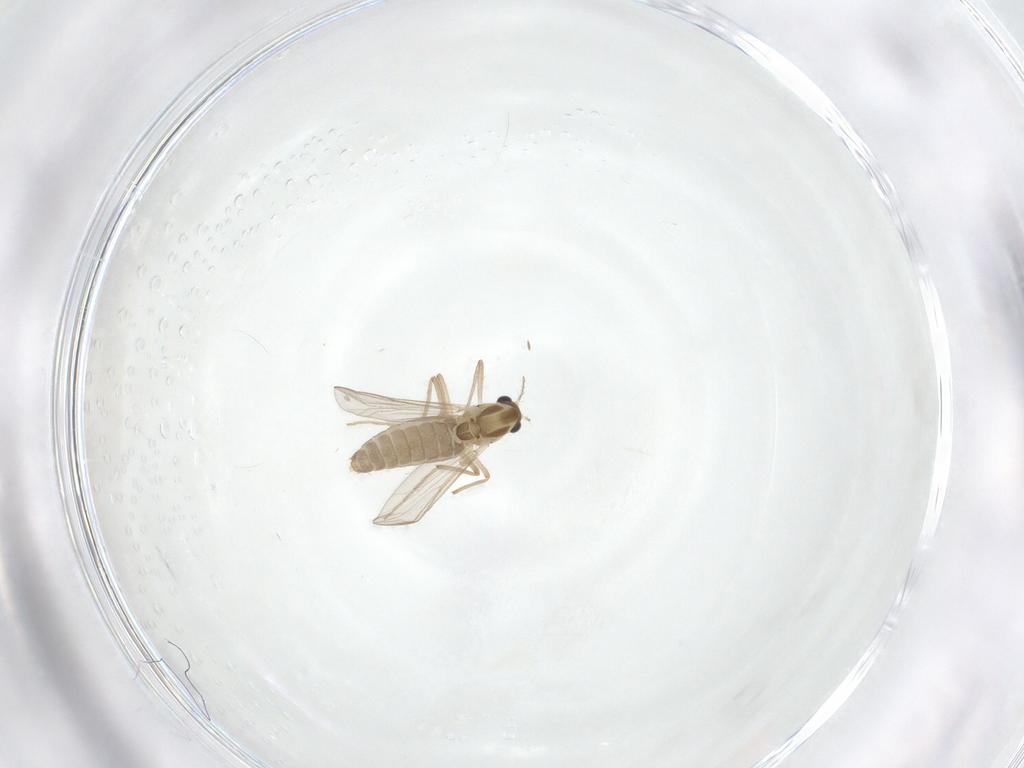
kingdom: Animalia
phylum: Arthropoda
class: Insecta
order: Diptera
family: Chironomidae
